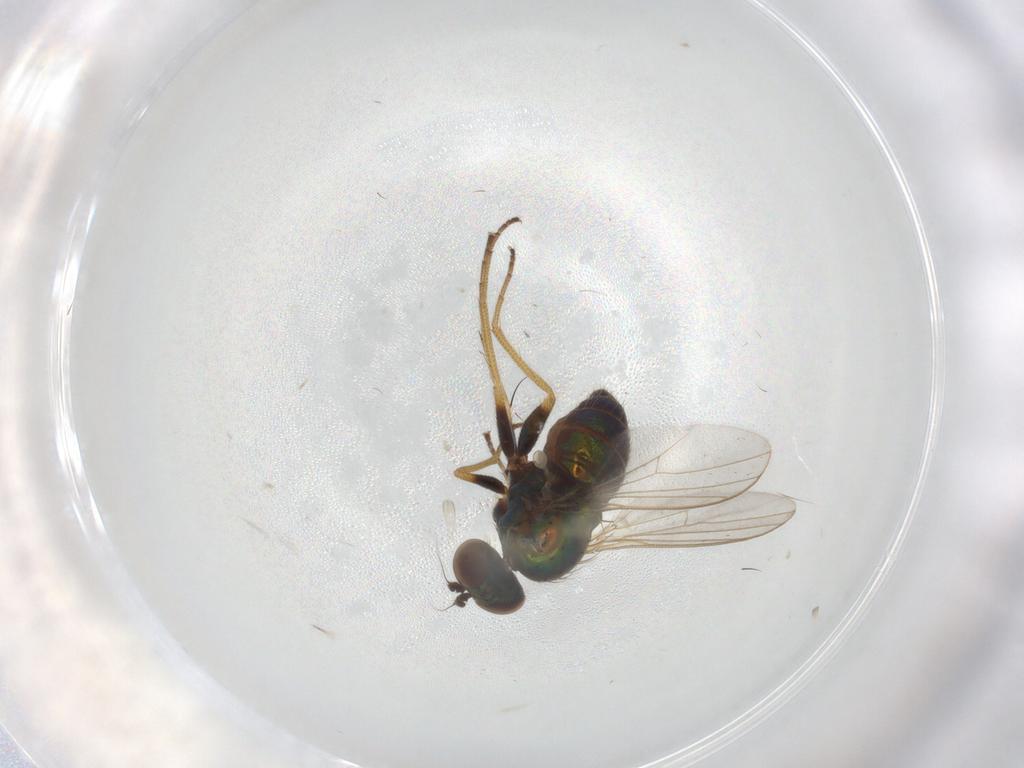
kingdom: Animalia
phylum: Arthropoda
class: Insecta
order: Diptera
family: Dolichopodidae
